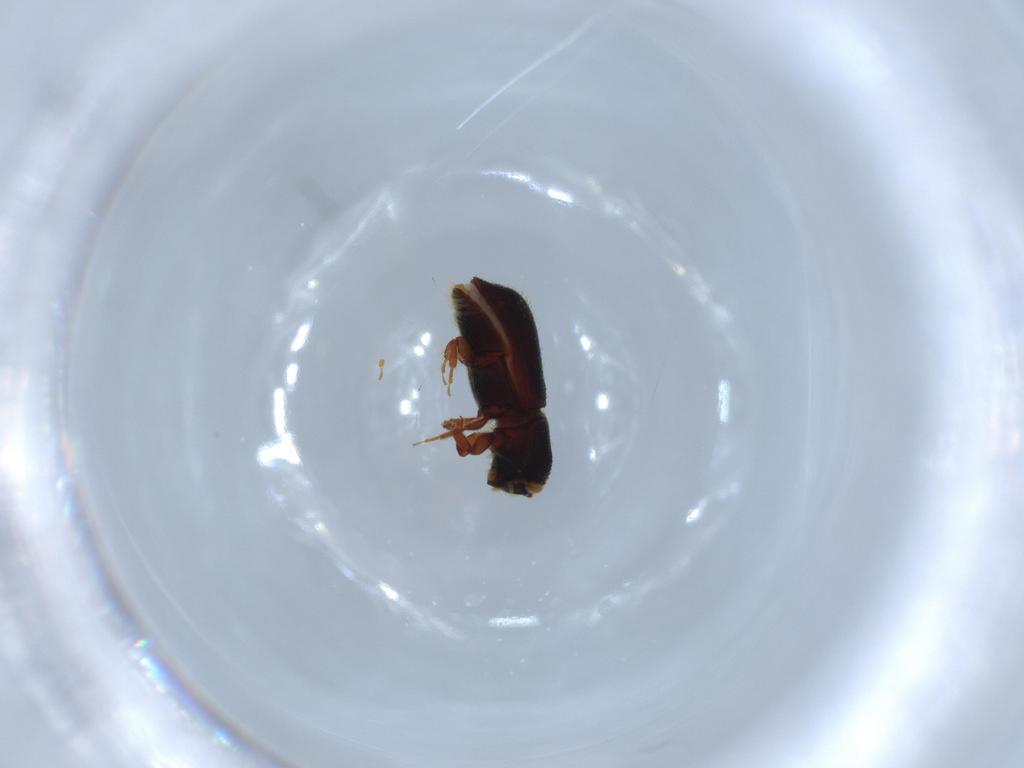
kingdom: Animalia
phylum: Arthropoda
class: Insecta
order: Coleoptera
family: Curculionidae
